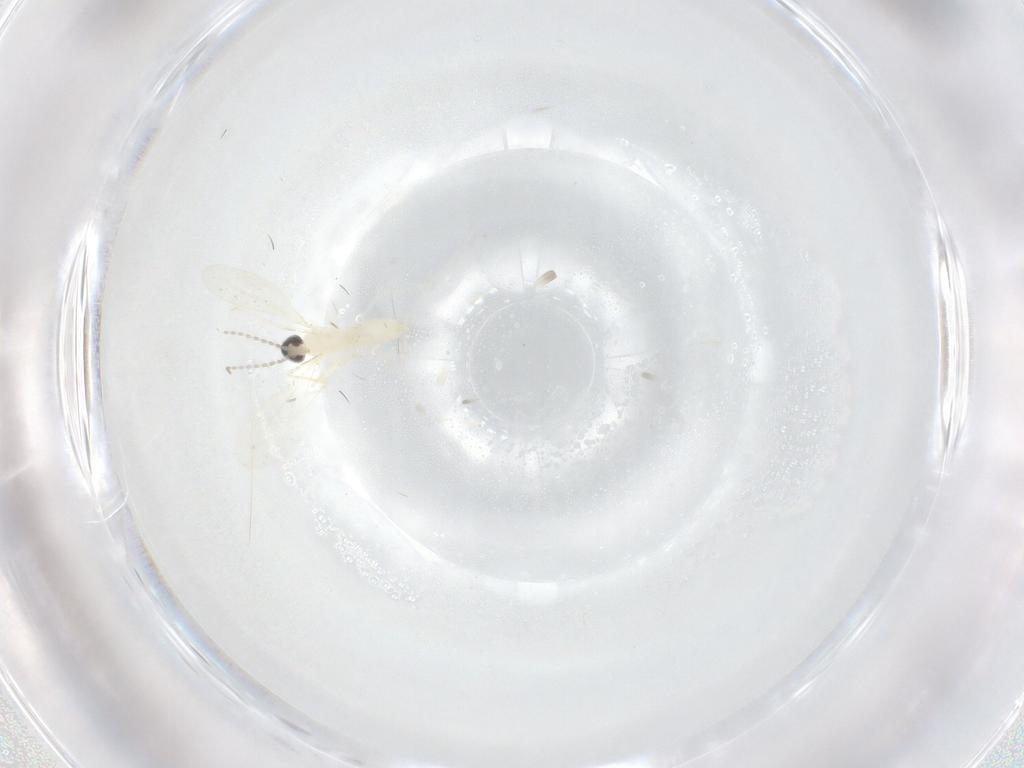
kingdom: Animalia
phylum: Arthropoda
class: Insecta
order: Diptera
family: Cecidomyiidae
